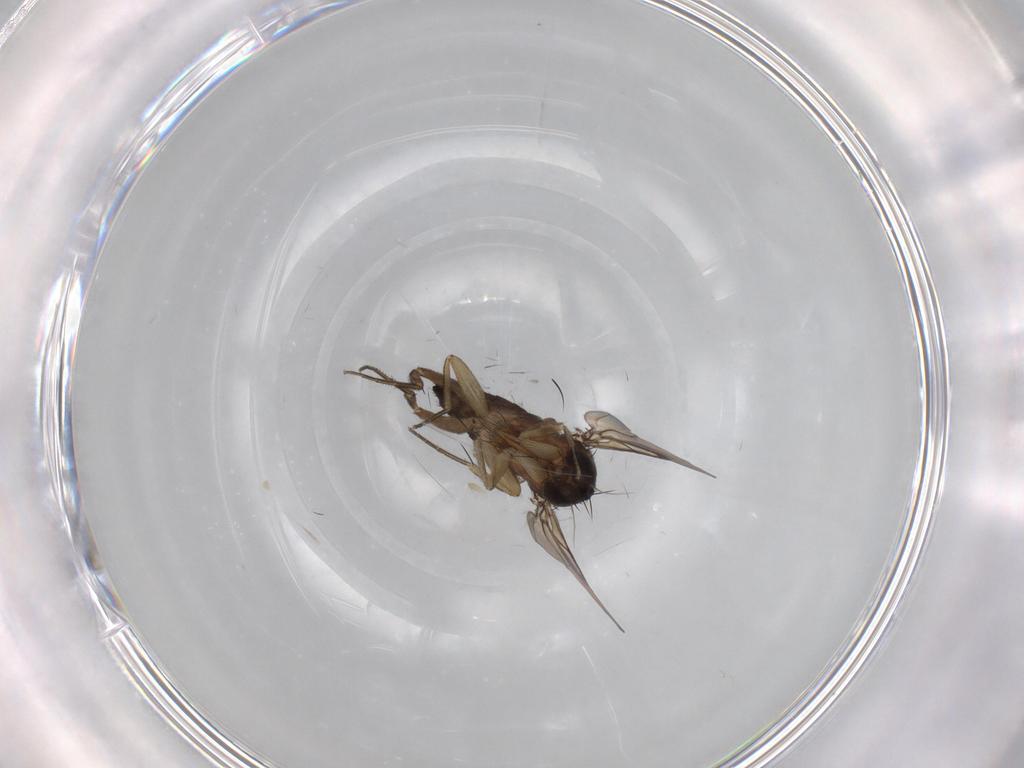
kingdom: Animalia
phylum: Arthropoda
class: Insecta
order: Diptera
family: Phoridae
